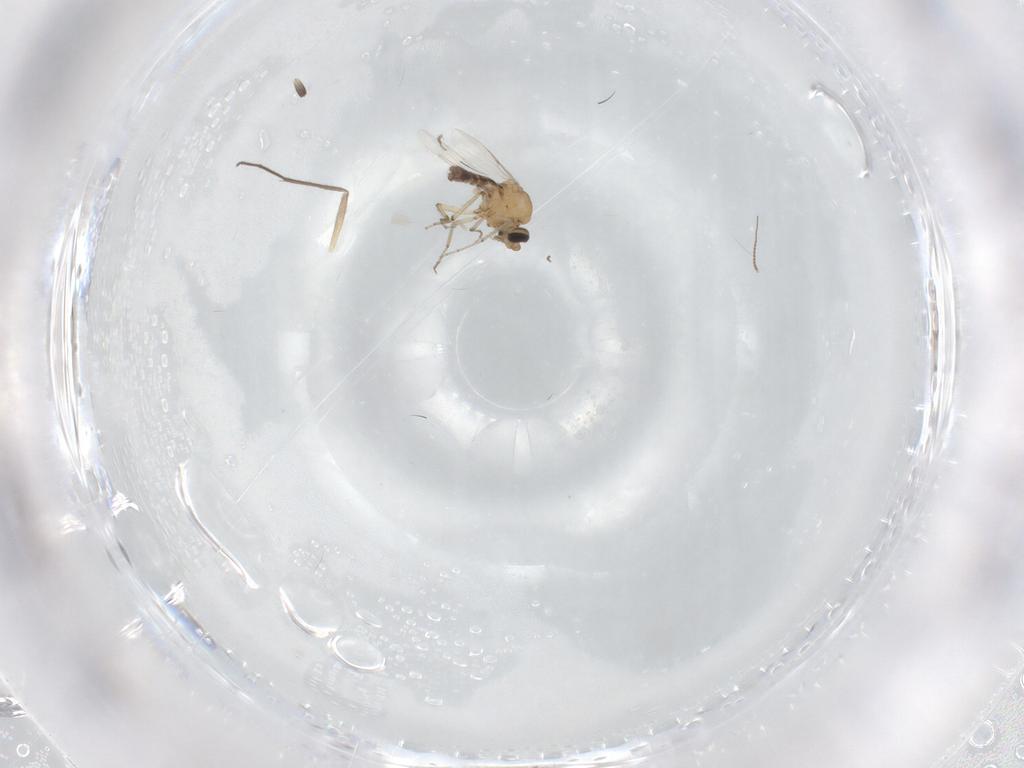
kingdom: Animalia
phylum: Arthropoda
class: Insecta
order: Diptera
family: Chironomidae
